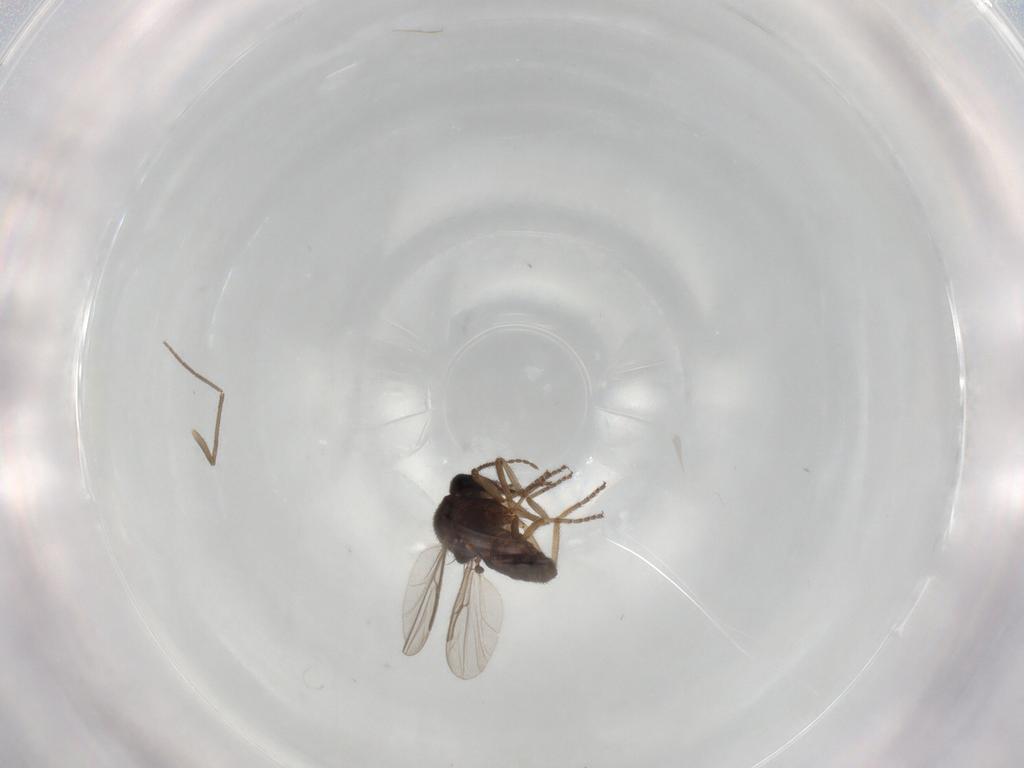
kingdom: Animalia
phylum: Arthropoda
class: Insecta
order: Diptera
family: Ceratopogonidae
